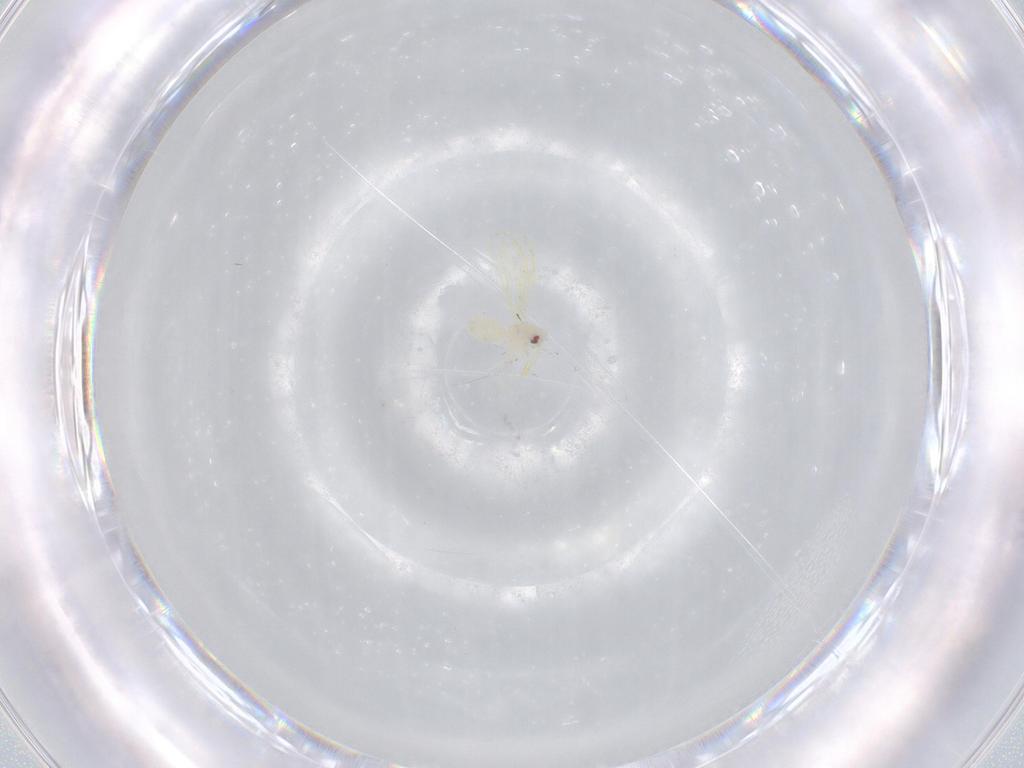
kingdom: Animalia
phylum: Arthropoda
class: Insecta
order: Hemiptera
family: Aleyrodidae
